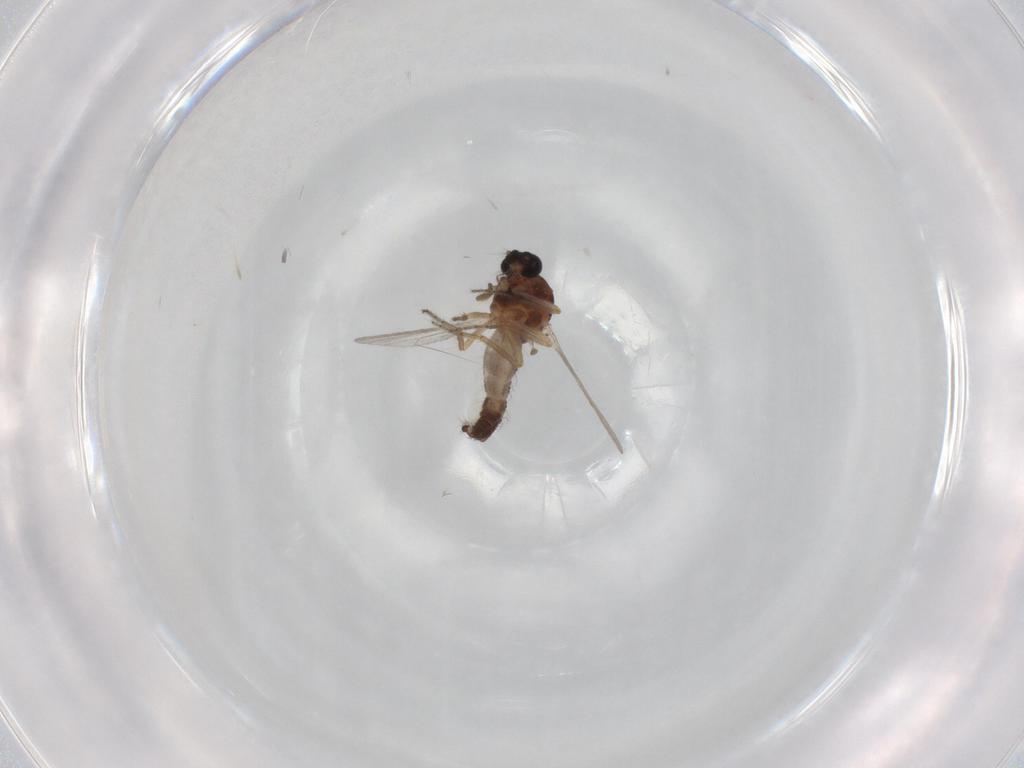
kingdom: Animalia
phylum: Arthropoda
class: Insecta
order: Diptera
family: Ceratopogonidae
